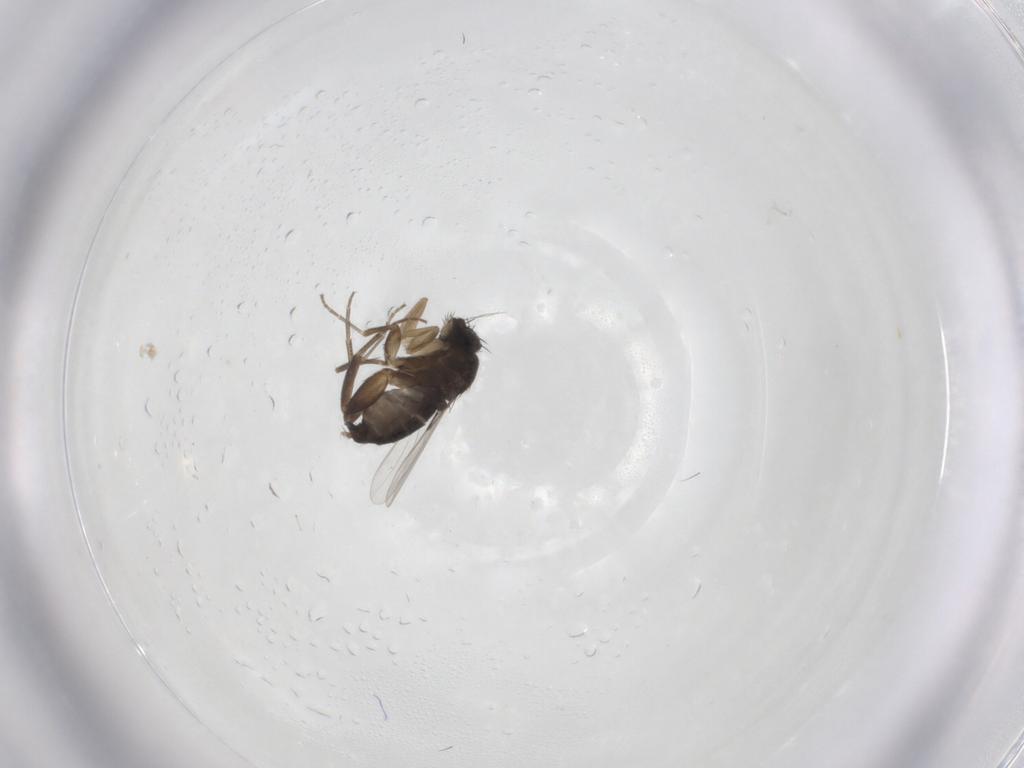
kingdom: Animalia
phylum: Arthropoda
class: Insecta
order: Diptera
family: Phoridae
